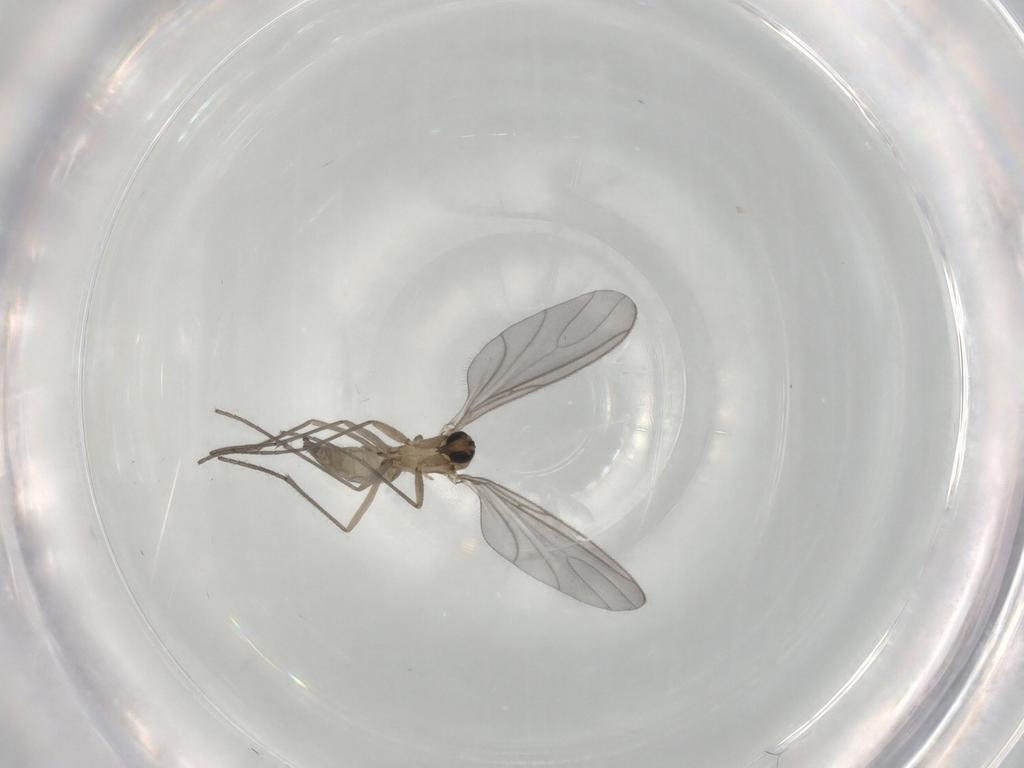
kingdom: Animalia
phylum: Arthropoda
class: Insecta
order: Diptera
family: Sciaridae
